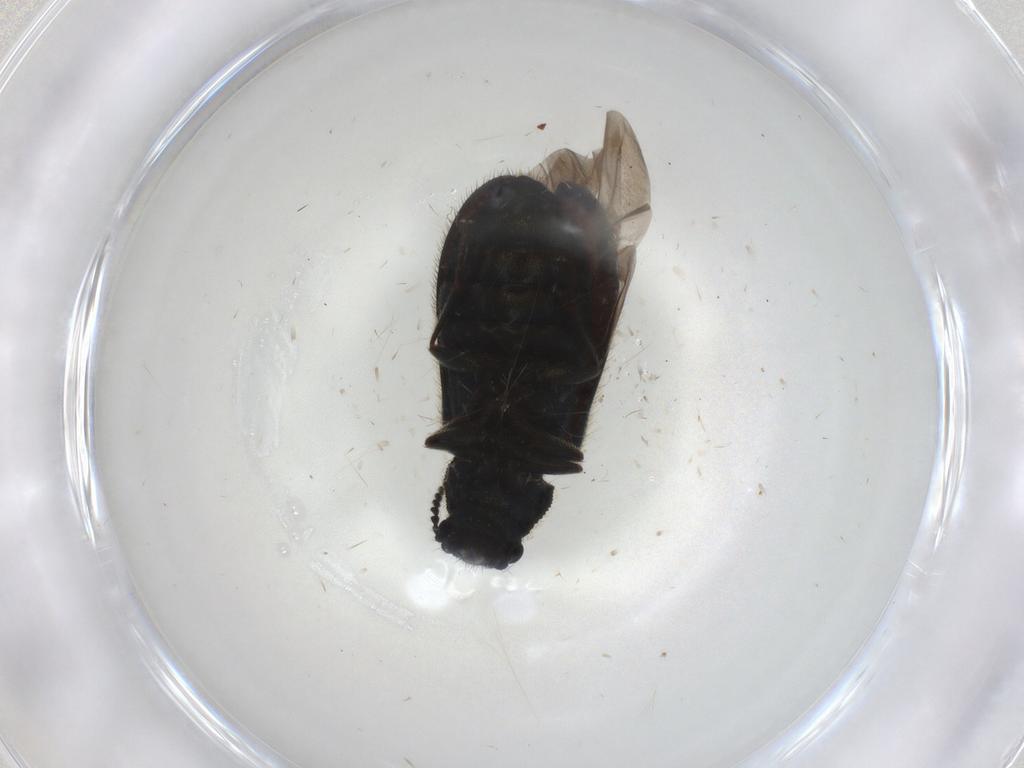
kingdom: Animalia
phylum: Arthropoda
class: Insecta
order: Coleoptera
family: Melyridae
